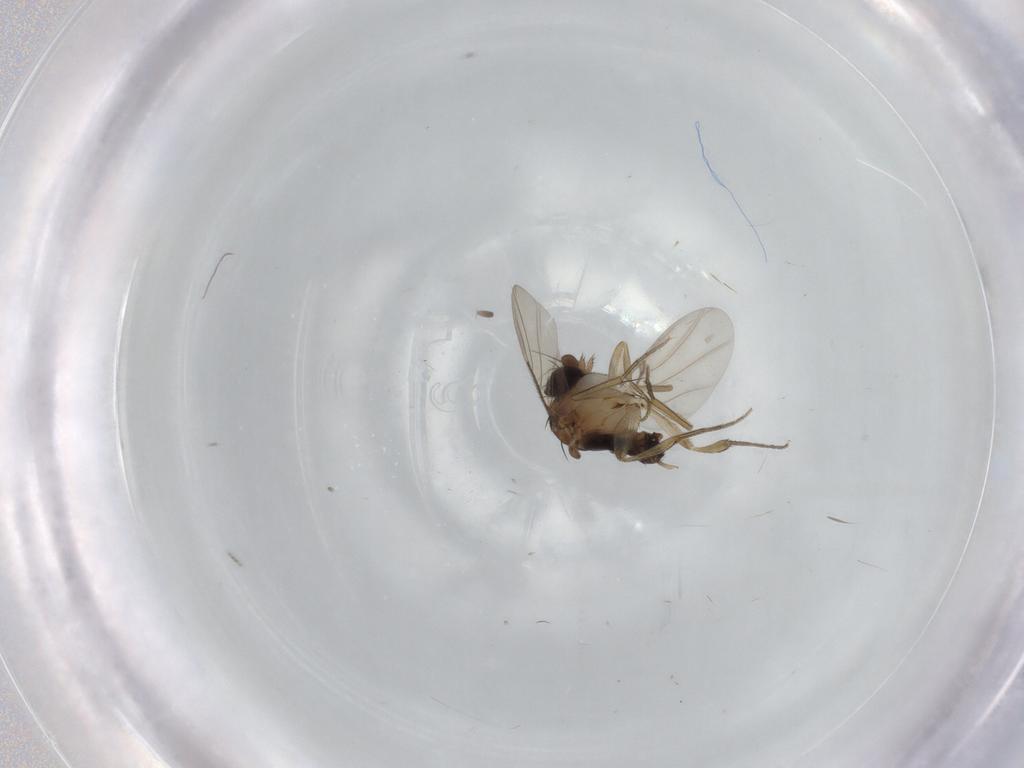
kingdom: Animalia
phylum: Arthropoda
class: Insecta
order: Diptera
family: Phoridae
